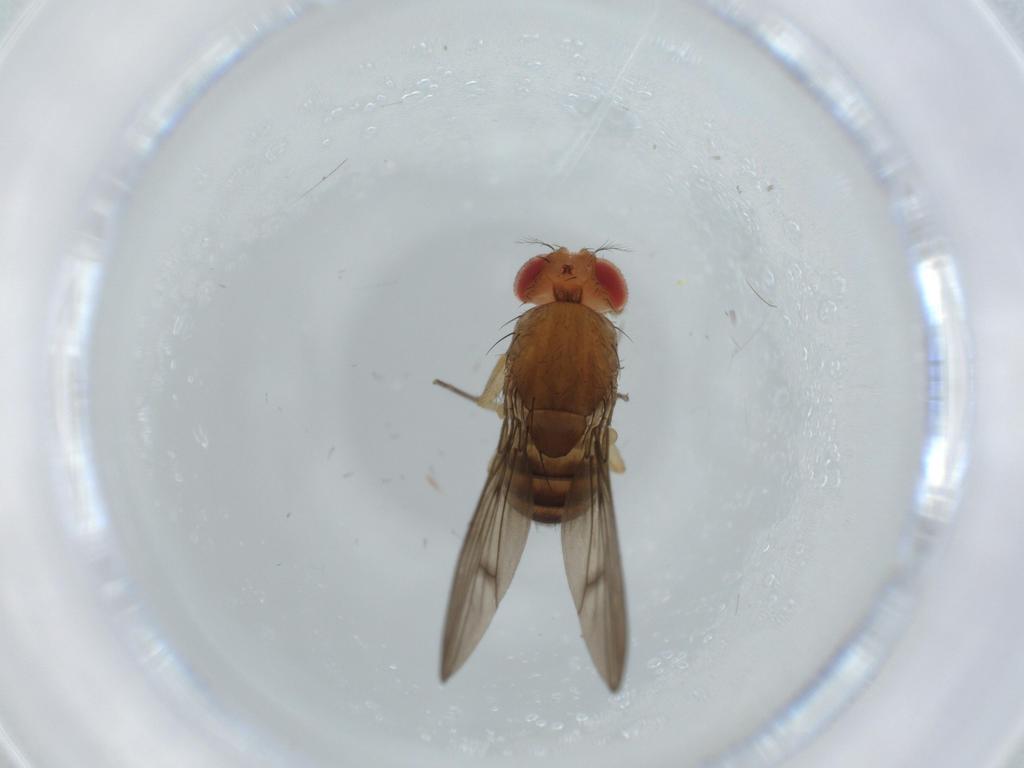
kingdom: Animalia
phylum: Arthropoda
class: Insecta
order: Diptera
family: Drosophilidae
